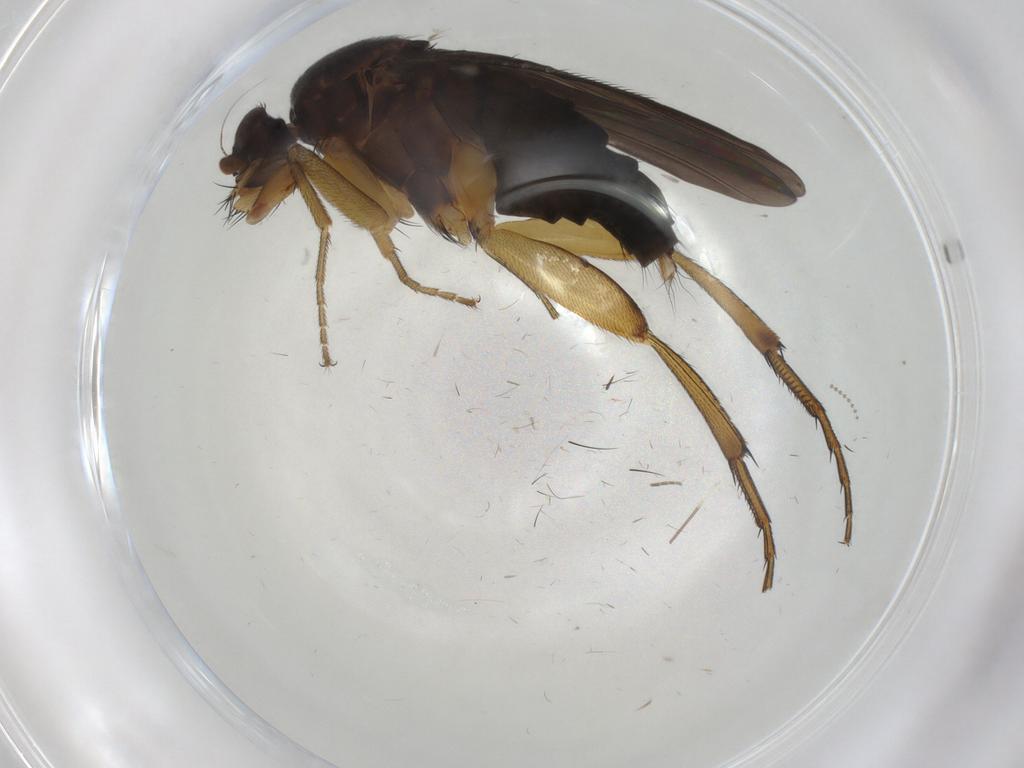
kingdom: Animalia
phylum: Arthropoda
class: Insecta
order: Diptera
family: Phoridae
